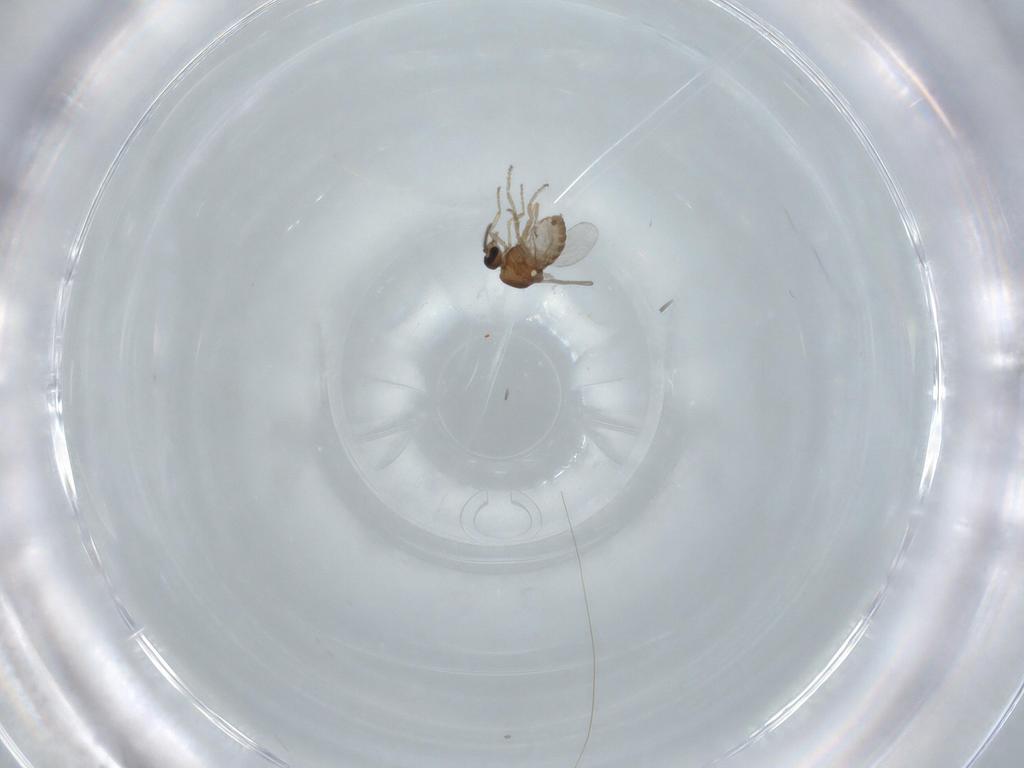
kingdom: Animalia
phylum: Arthropoda
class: Insecta
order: Diptera
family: Ceratopogonidae
